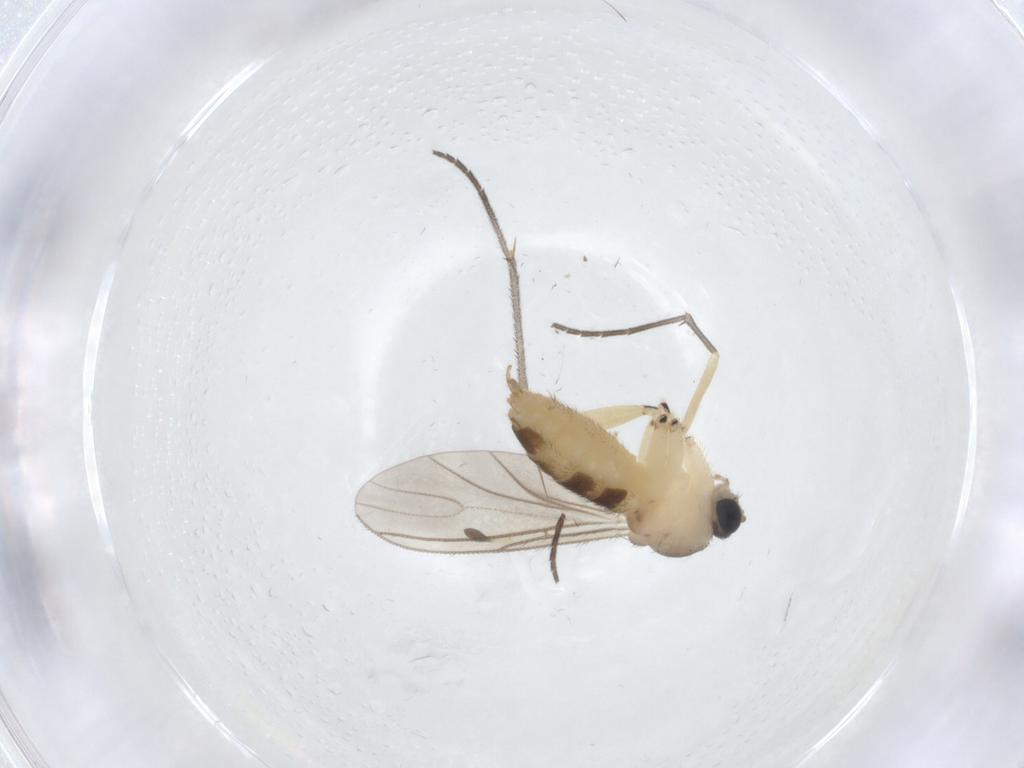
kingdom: Animalia
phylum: Arthropoda
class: Insecta
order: Diptera
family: Sciaridae
